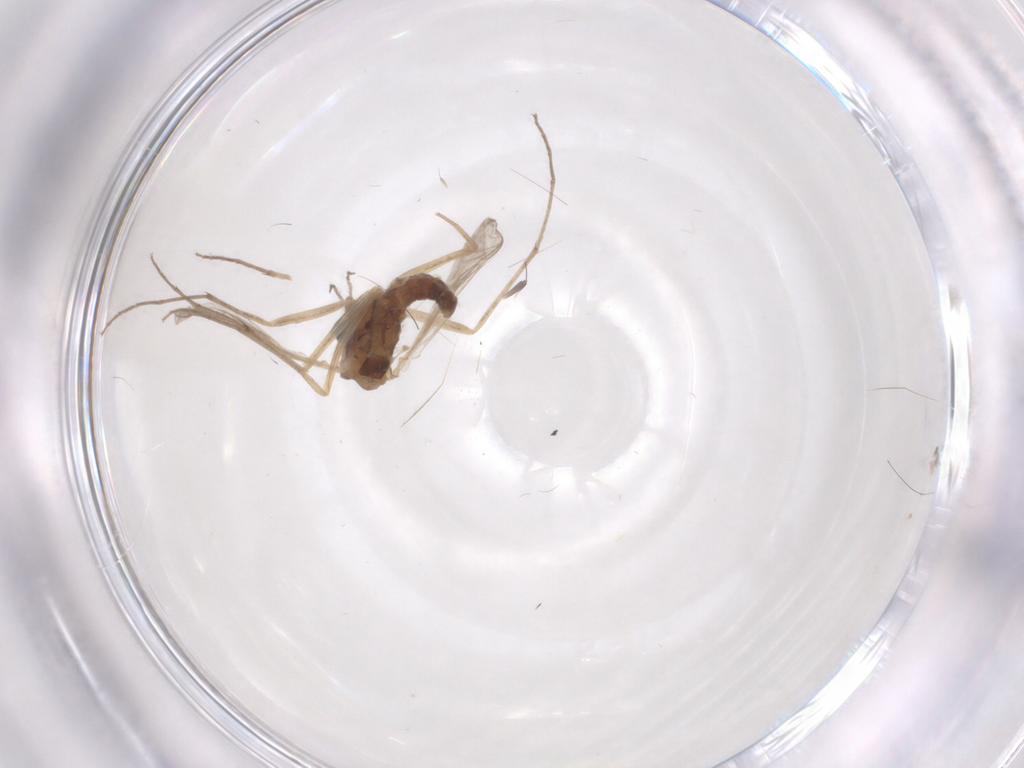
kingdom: Animalia
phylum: Arthropoda
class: Insecta
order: Diptera
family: Chironomidae
